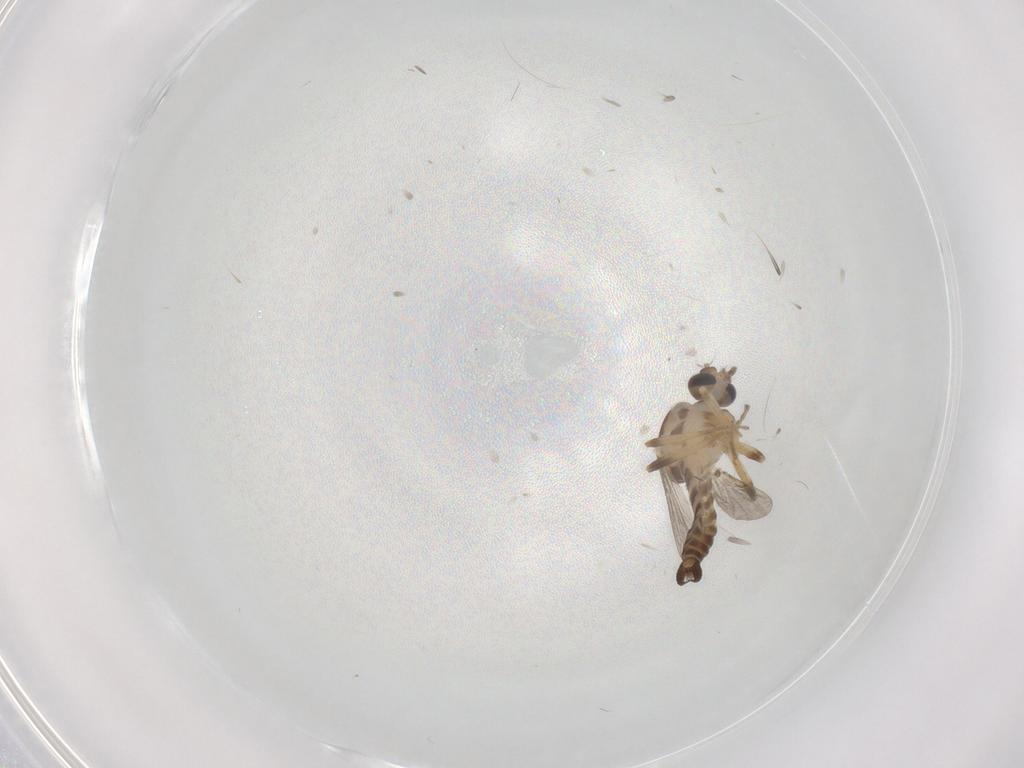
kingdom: Animalia
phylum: Arthropoda
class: Insecta
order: Diptera
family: Ceratopogonidae
